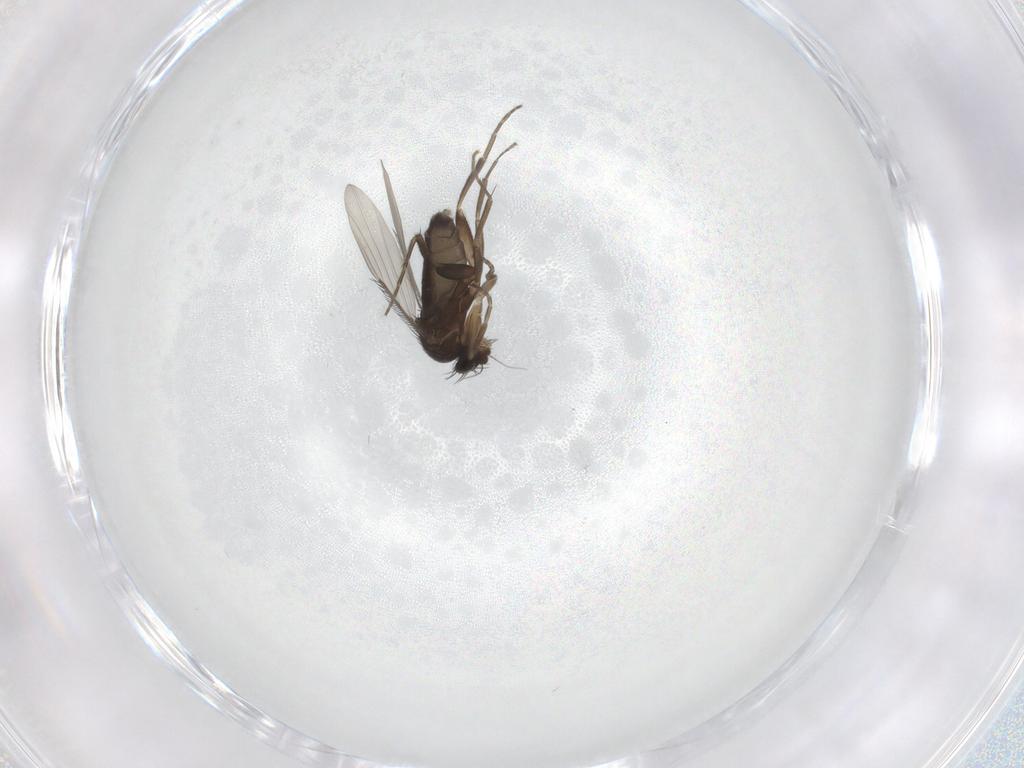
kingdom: Animalia
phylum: Arthropoda
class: Insecta
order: Diptera
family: Phoridae
